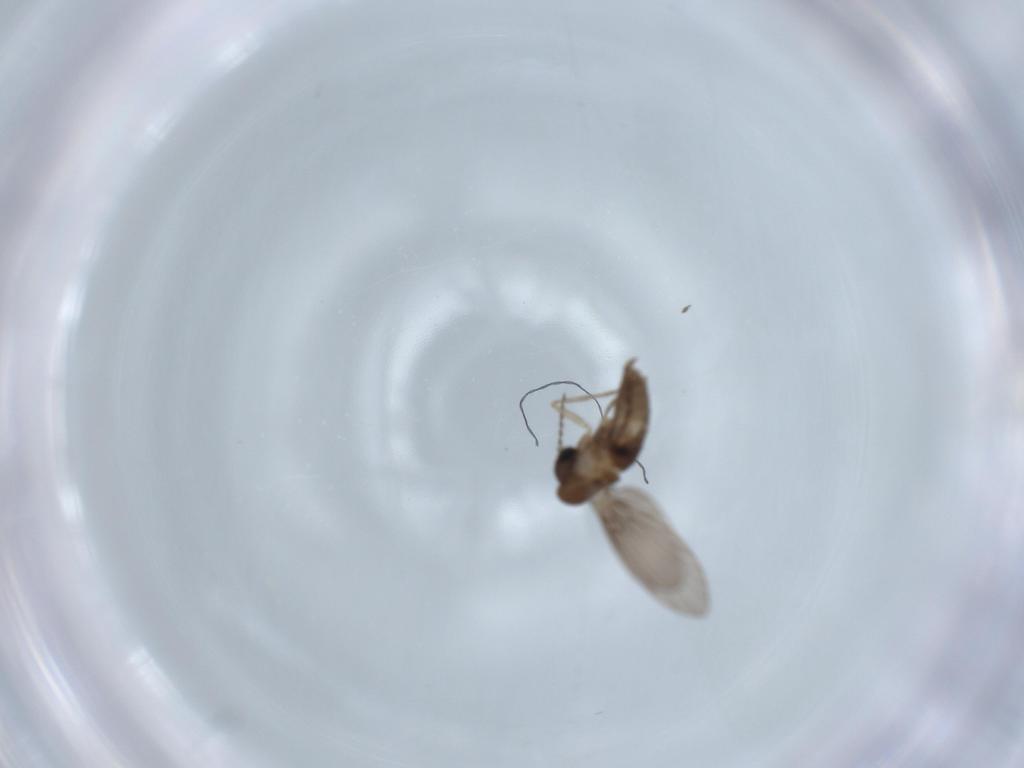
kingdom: Animalia
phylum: Arthropoda
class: Insecta
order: Diptera
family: Psychodidae
